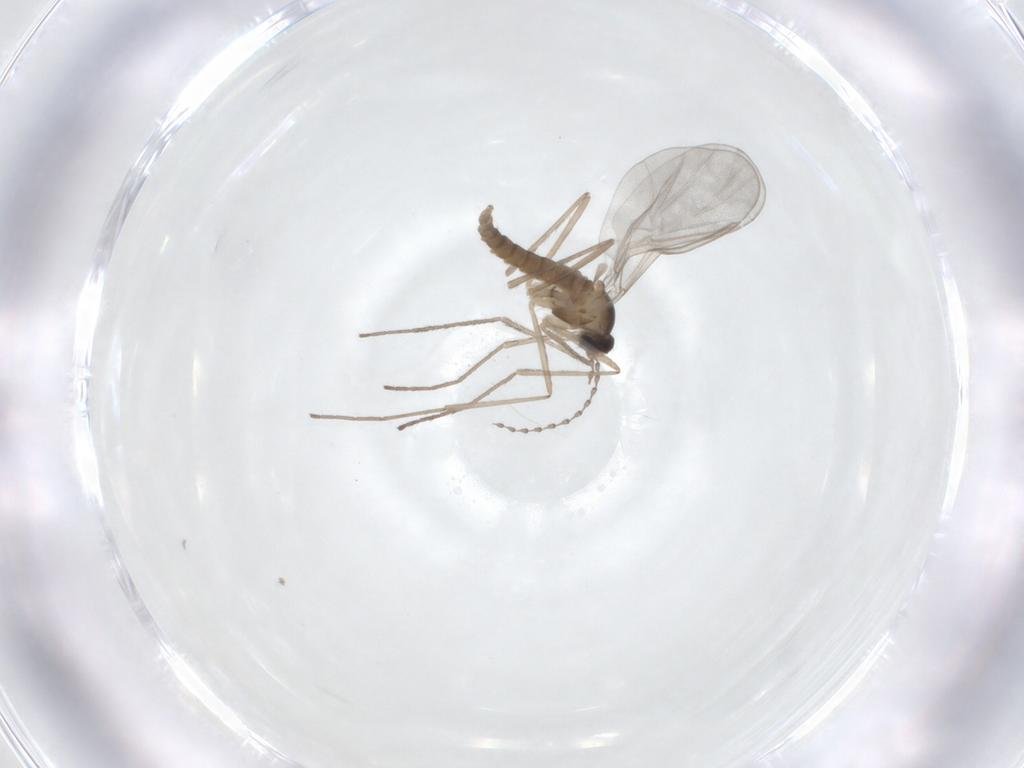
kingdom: Animalia
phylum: Arthropoda
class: Insecta
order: Diptera
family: Cecidomyiidae
